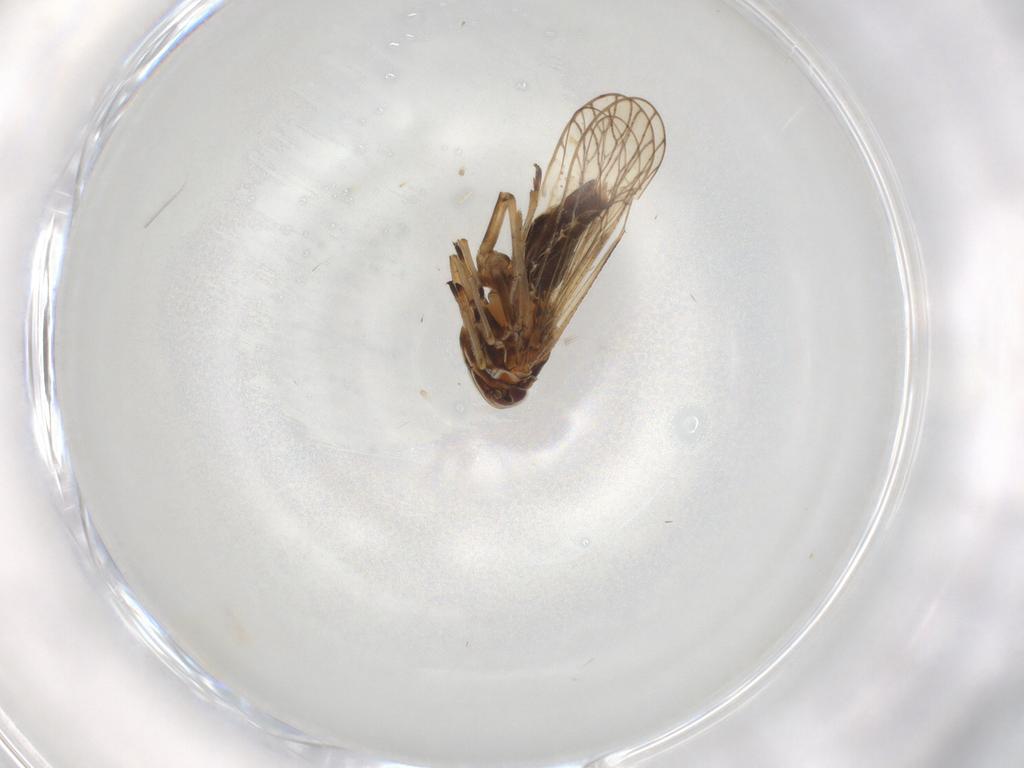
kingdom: Animalia
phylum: Arthropoda
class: Insecta
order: Hemiptera
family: Pyrrhocoridae
